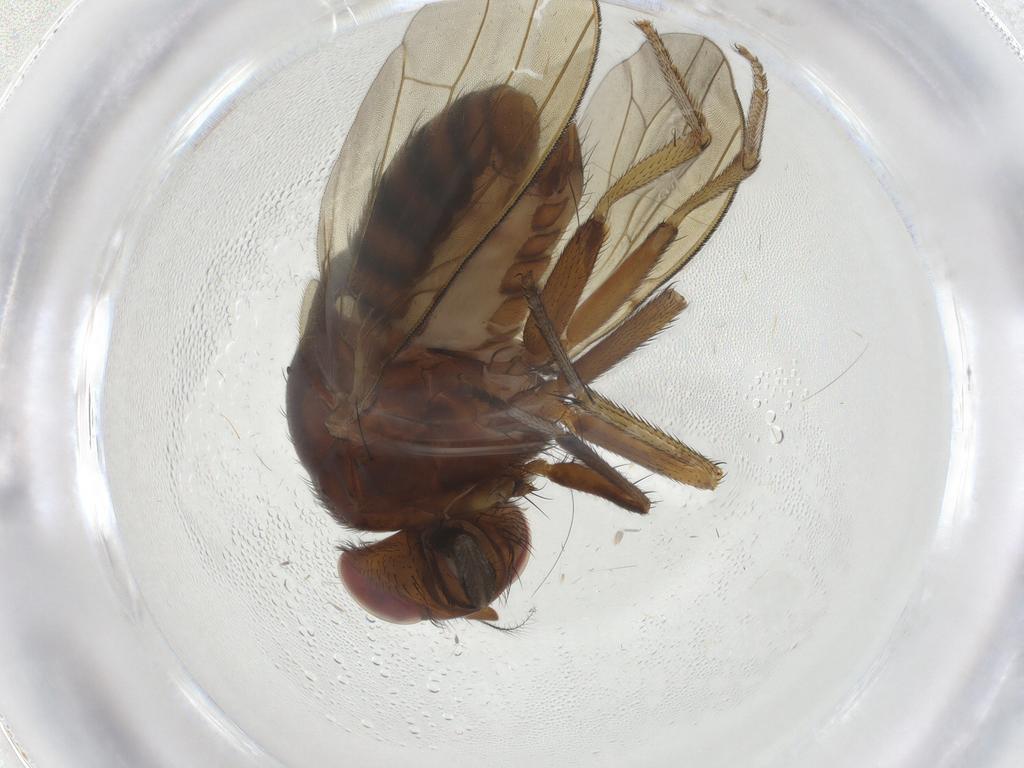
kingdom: Animalia
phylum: Arthropoda
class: Insecta
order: Diptera
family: Chironomidae
